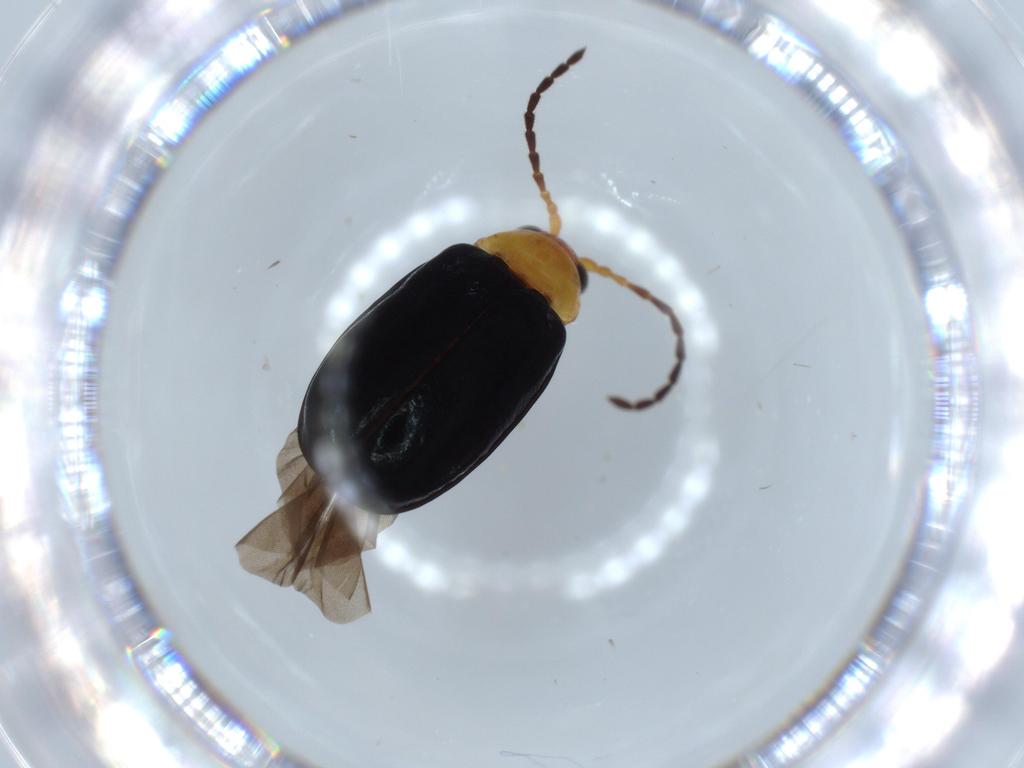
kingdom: Animalia
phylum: Arthropoda
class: Insecta
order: Coleoptera
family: Chrysomelidae
